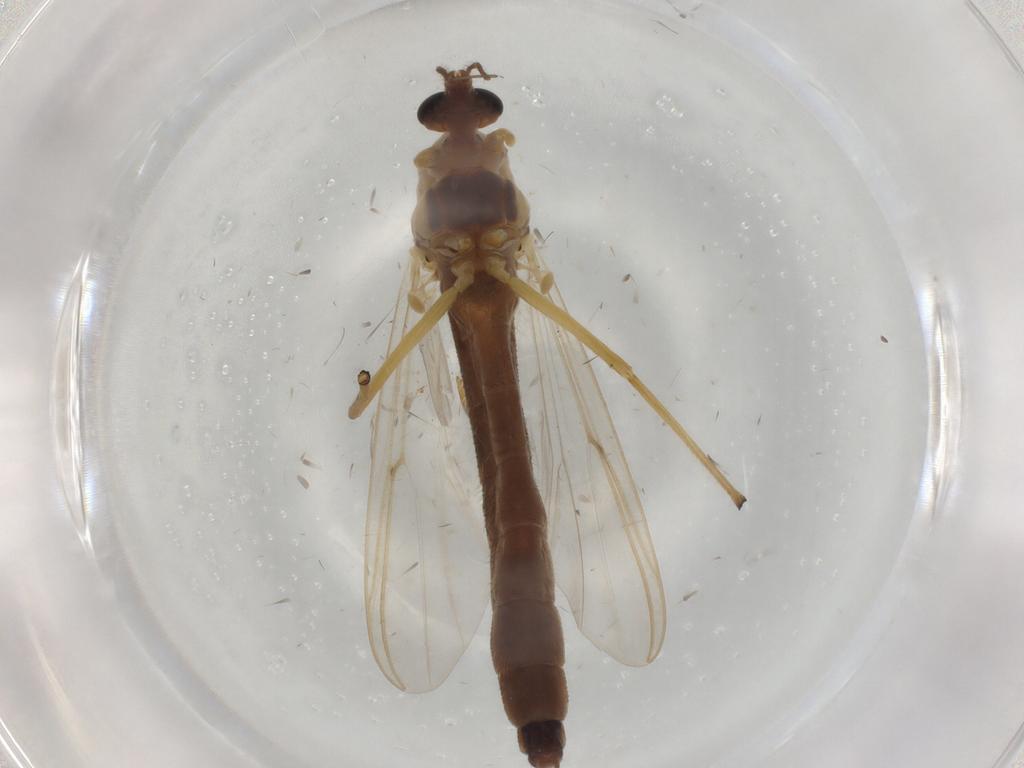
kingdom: Animalia
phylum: Arthropoda
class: Insecta
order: Diptera
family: Chironomidae
